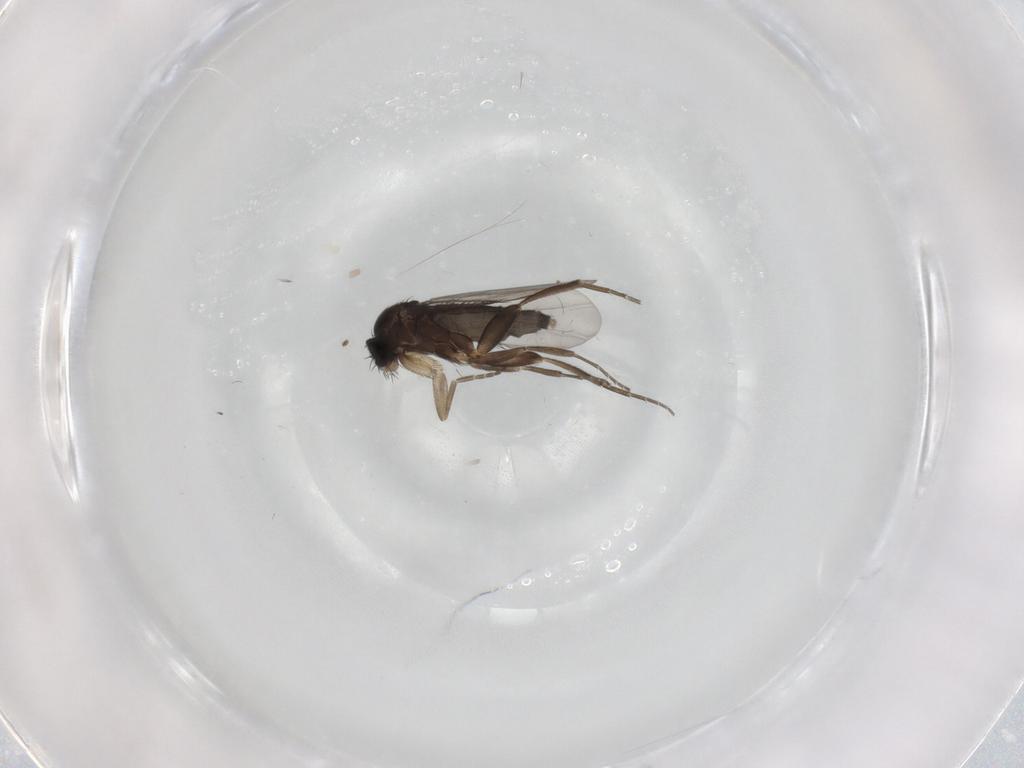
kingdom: Animalia
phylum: Arthropoda
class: Insecta
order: Diptera
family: Phoridae
